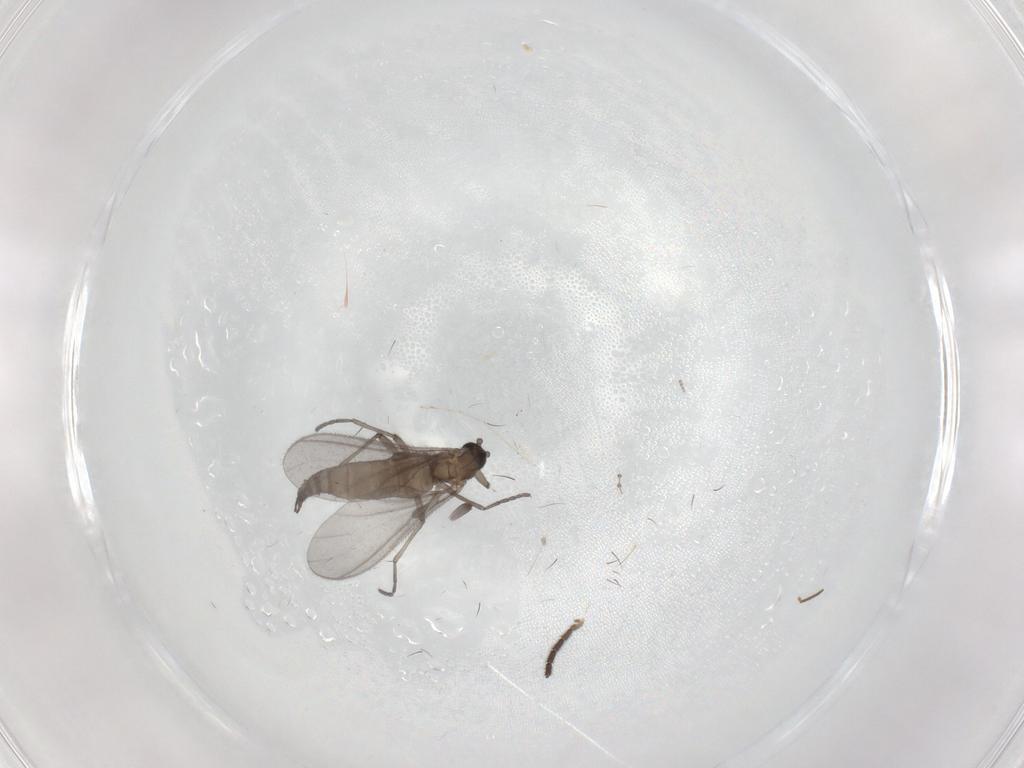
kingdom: Animalia
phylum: Arthropoda
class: Insecta
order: Diptera
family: Sciaridae
